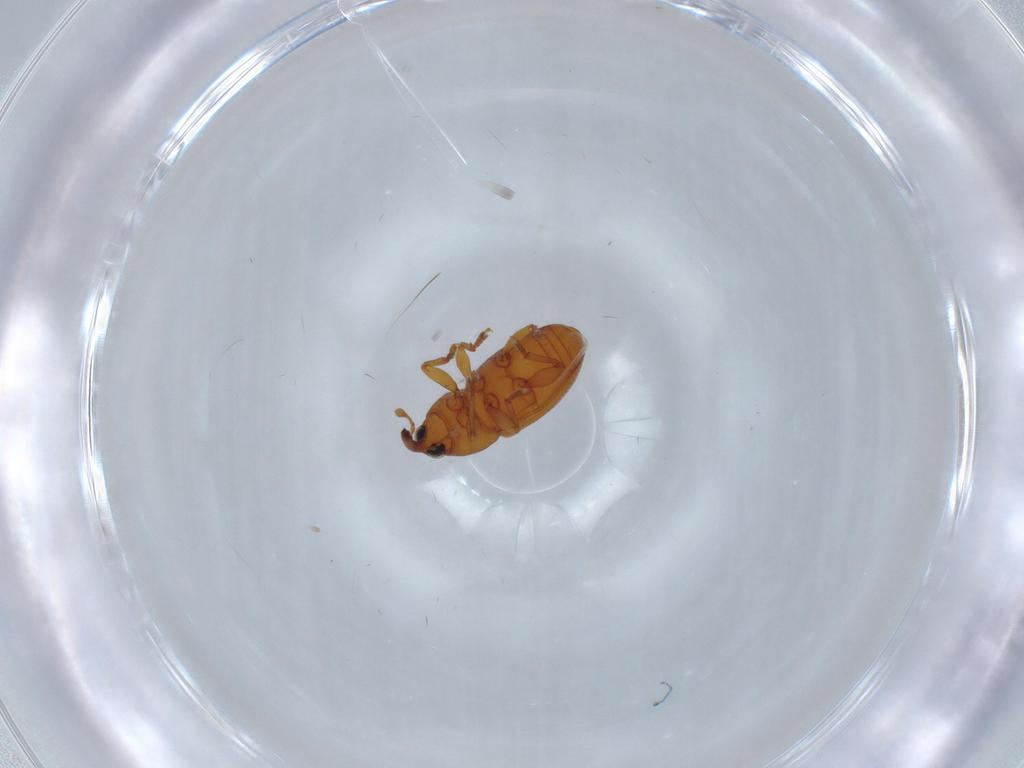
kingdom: Animalia
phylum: Arthropoda
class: Insecta
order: Coleoptera
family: Curculionidae
